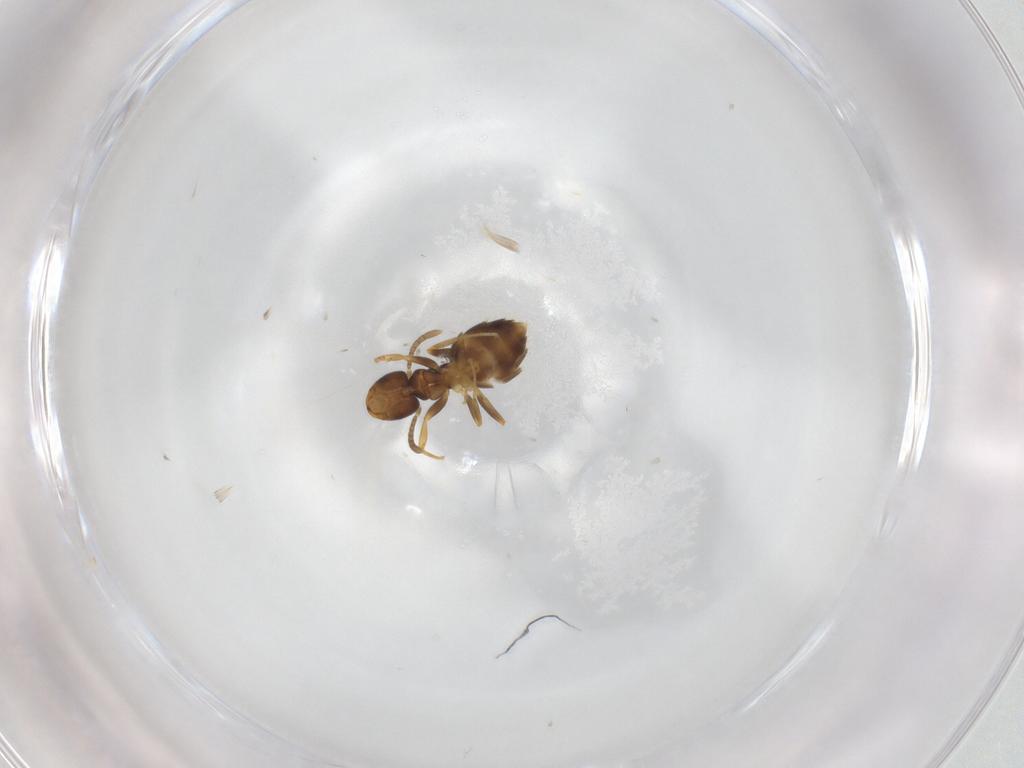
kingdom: Animalia
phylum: Arthropoda
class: Insecta
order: Hymenoptera
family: Formicidae
